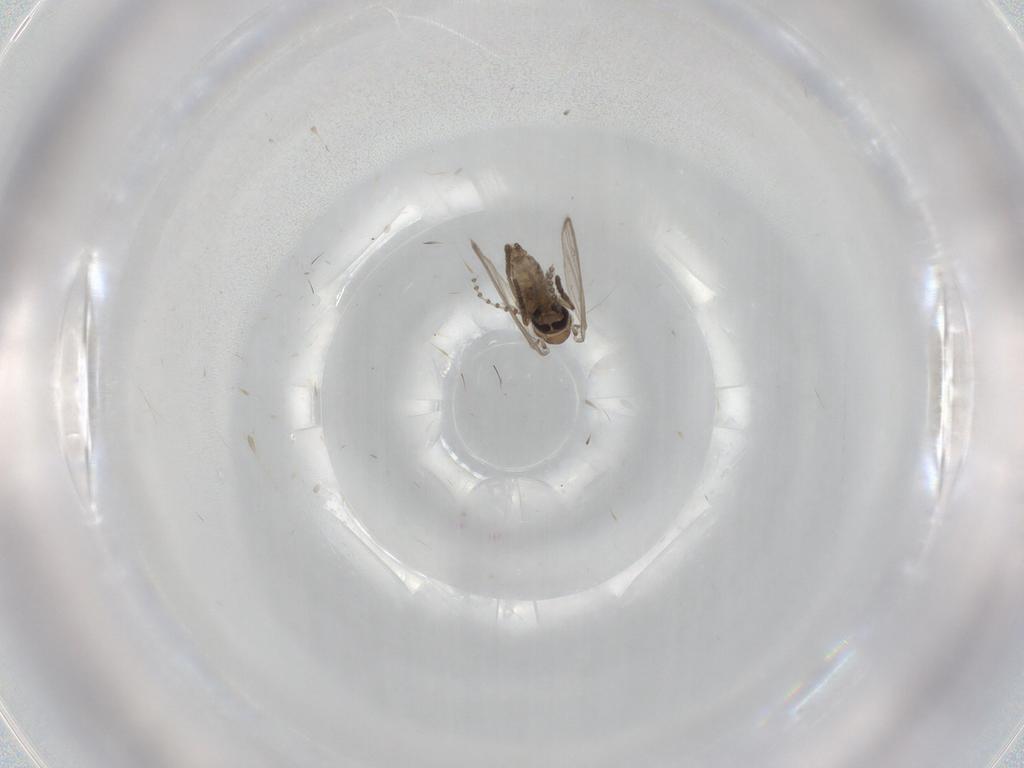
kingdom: Animalia
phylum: Arthropoda
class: Insecta
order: Diptera
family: Psychodidae
